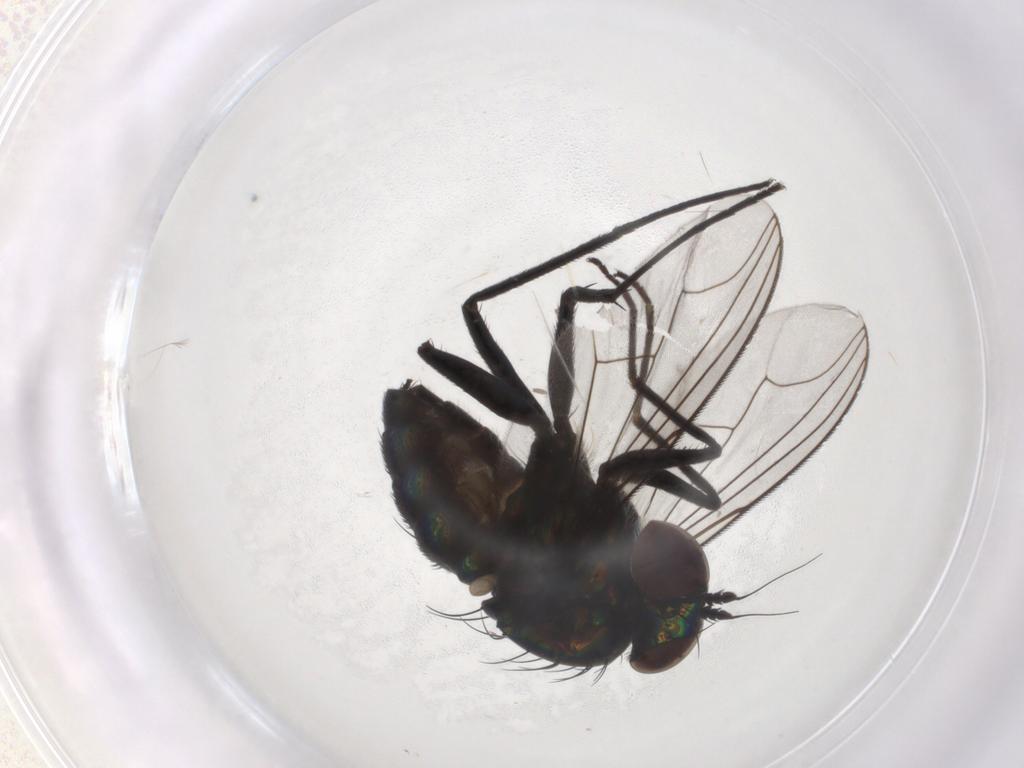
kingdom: Animalia
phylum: Arthropoda
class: Insecta
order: Diptera
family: Dolichopodidae
